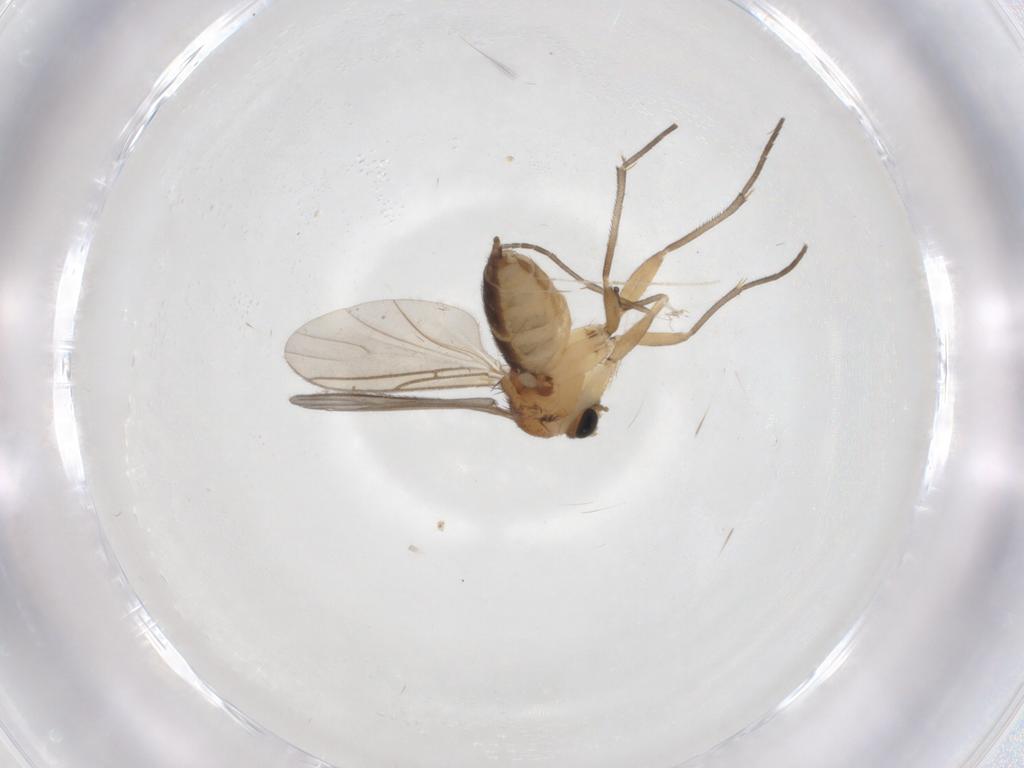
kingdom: Animalia
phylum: Arthropoda
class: Insecta
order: Diptera
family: Sciaridae
